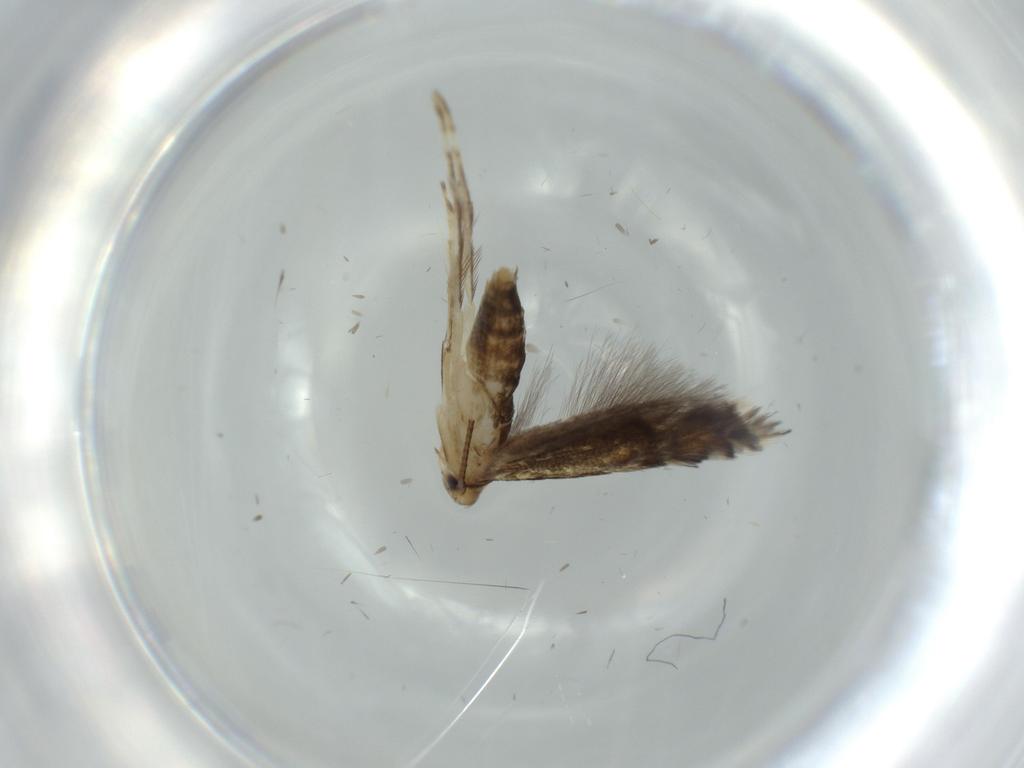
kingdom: Animalia
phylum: Arthropoda
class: Insecta
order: Lepidoptera
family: Gracillariidae
